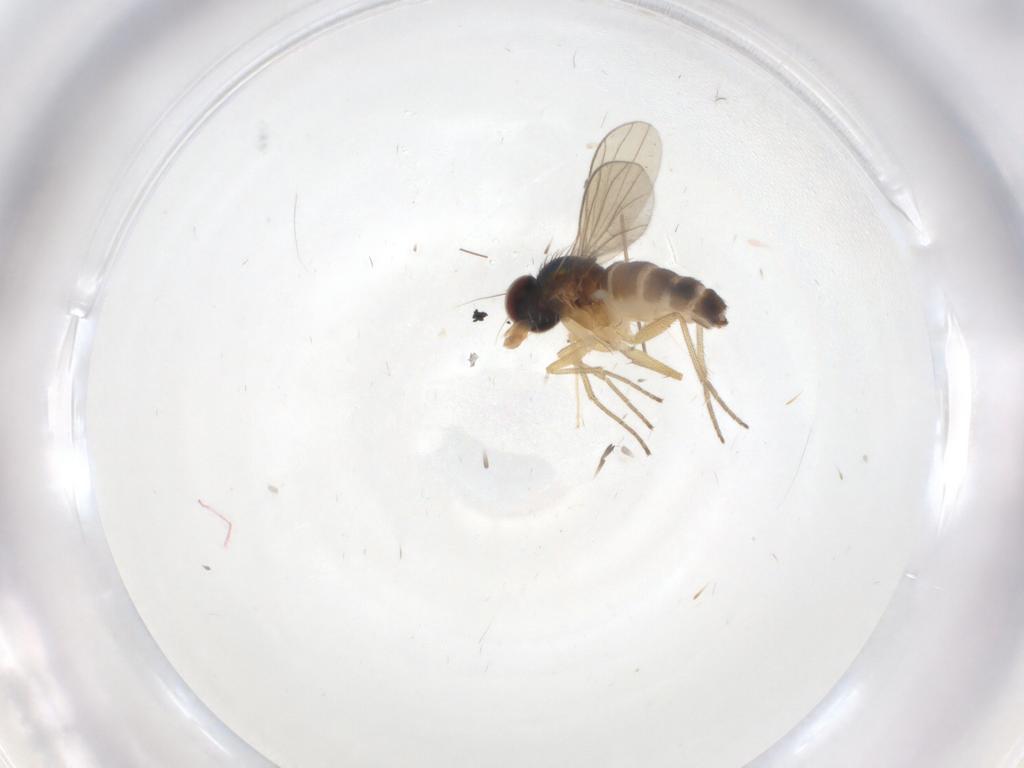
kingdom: Animalia
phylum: Arthropoda
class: Insecta
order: Diptera
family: Dolichopodidae
